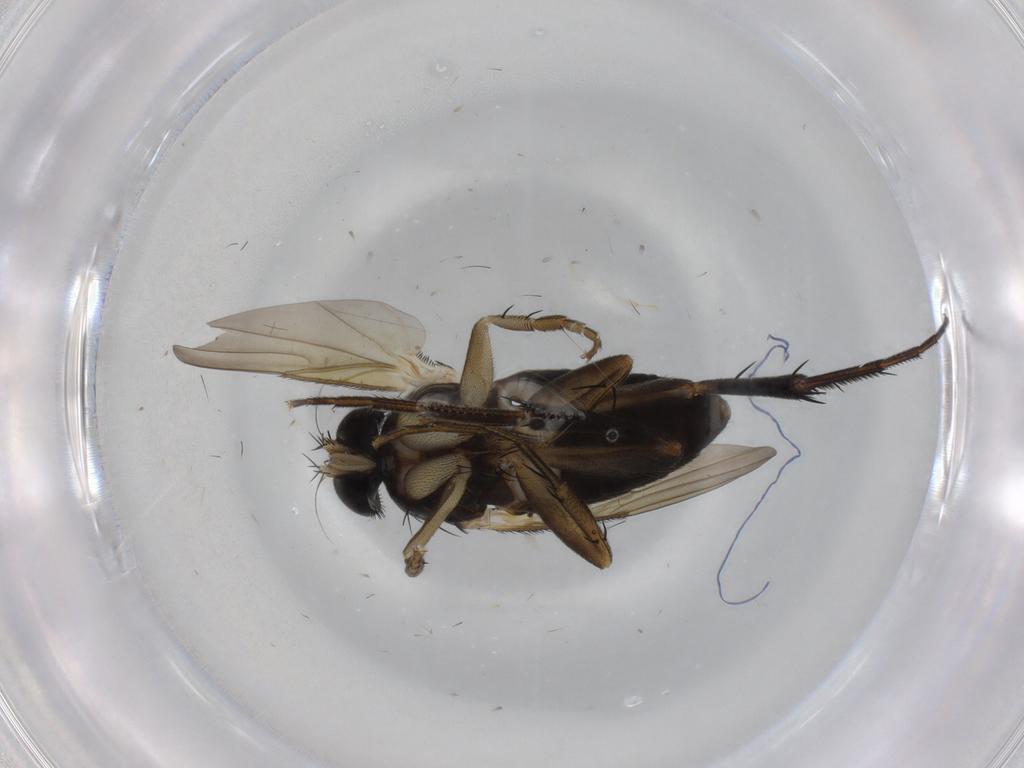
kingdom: Animalia
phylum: Arthropoda
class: Insecta
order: Diptera
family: Phoridae
